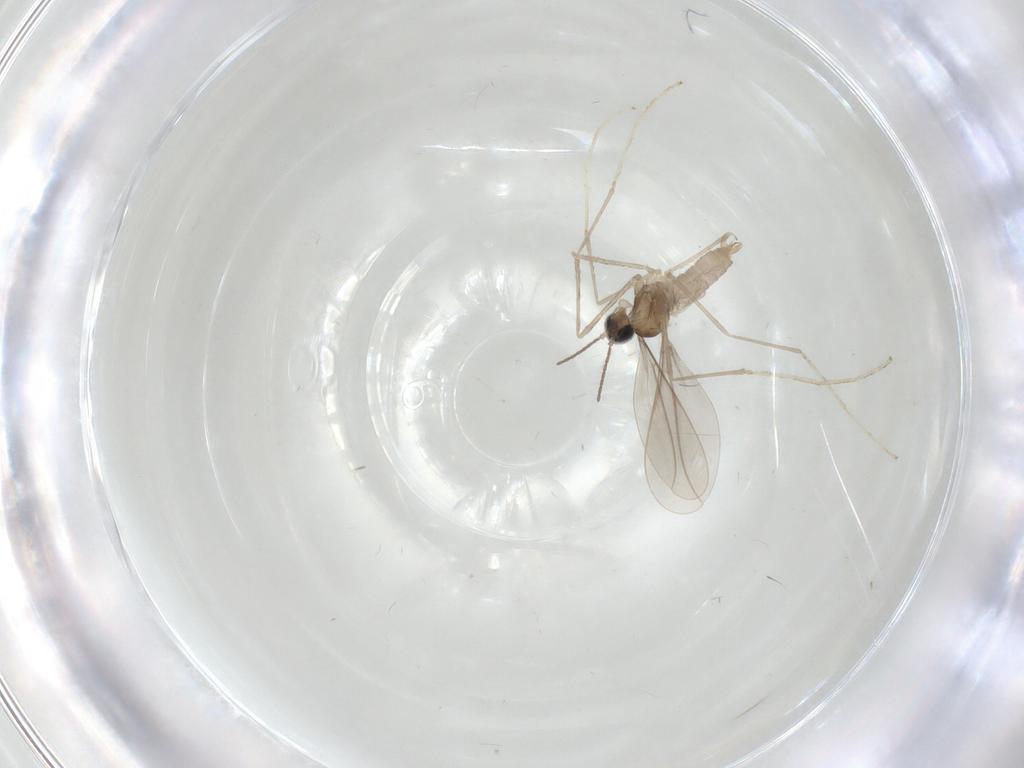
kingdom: Animalia
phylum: Arthropoda
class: Insecta
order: Diptera
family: Cecidomyiidae
